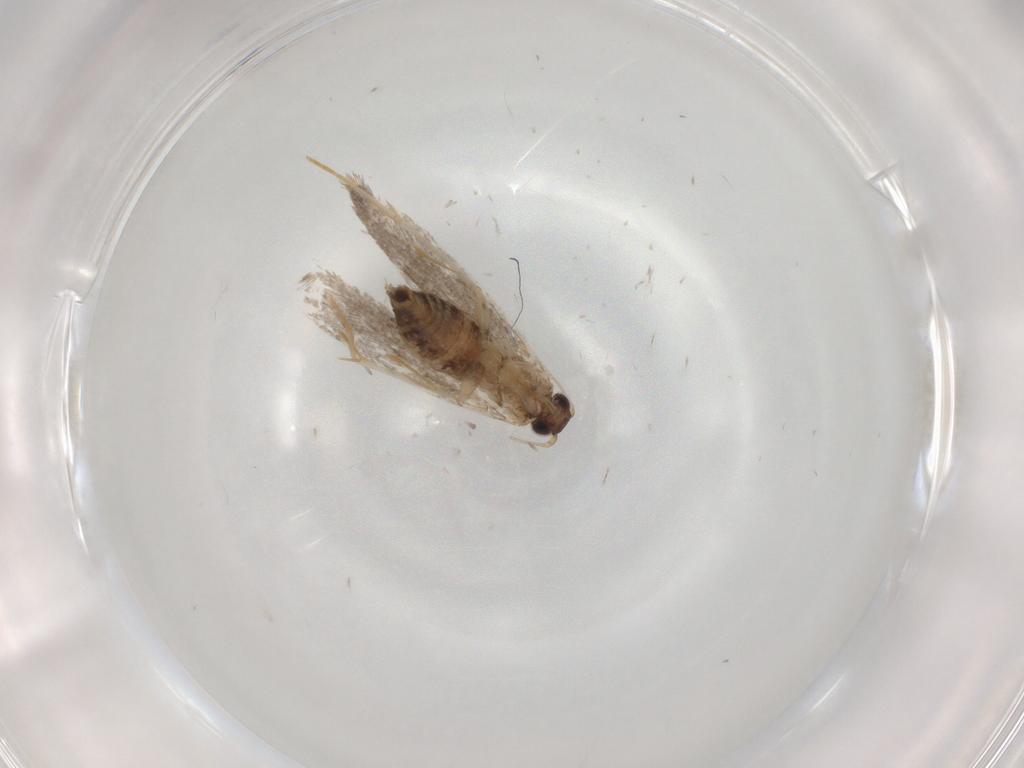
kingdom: Animalia
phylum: Arthropoda
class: Insecta
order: Lepidoptera
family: Tineidae
